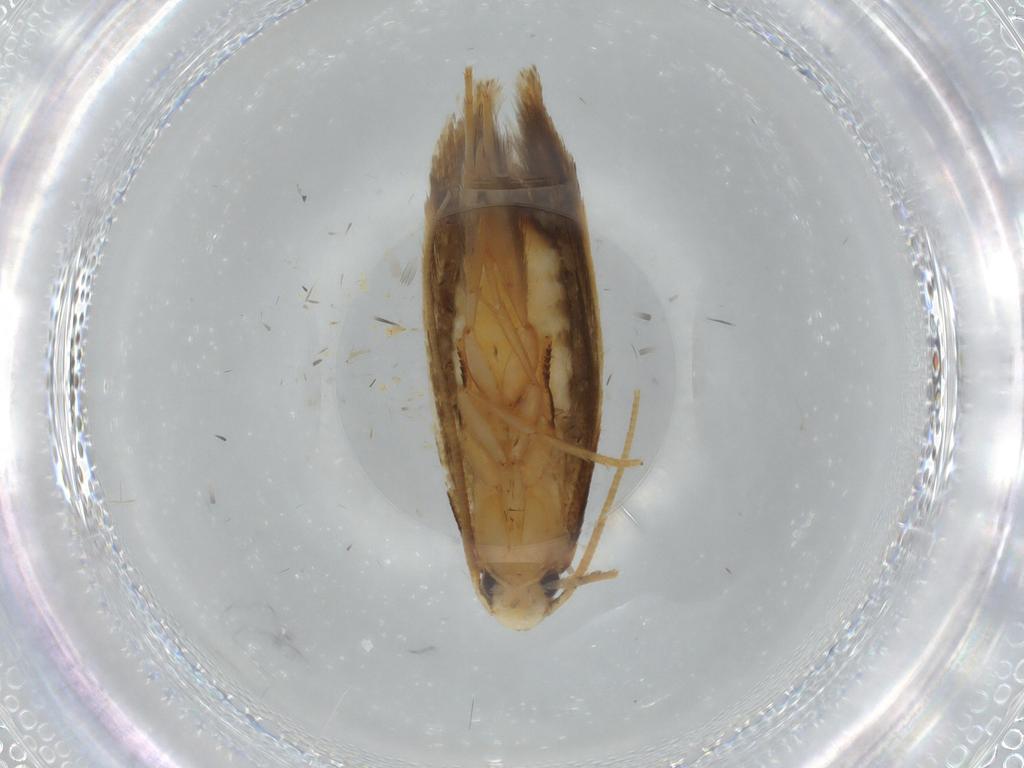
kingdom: Animalia
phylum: Arthropoda
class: Insecta
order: Lepidoptera
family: Tineidae
